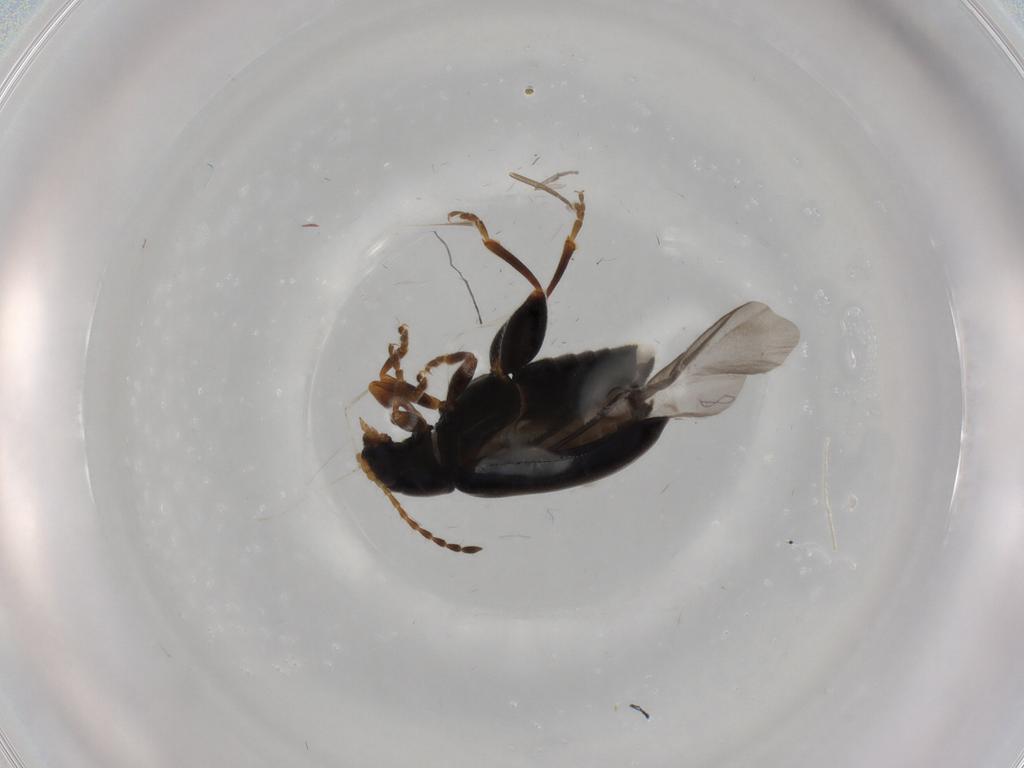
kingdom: Animalia
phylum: Arthropoda
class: Insecta
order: Coleoptera
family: Chrysomelidae
